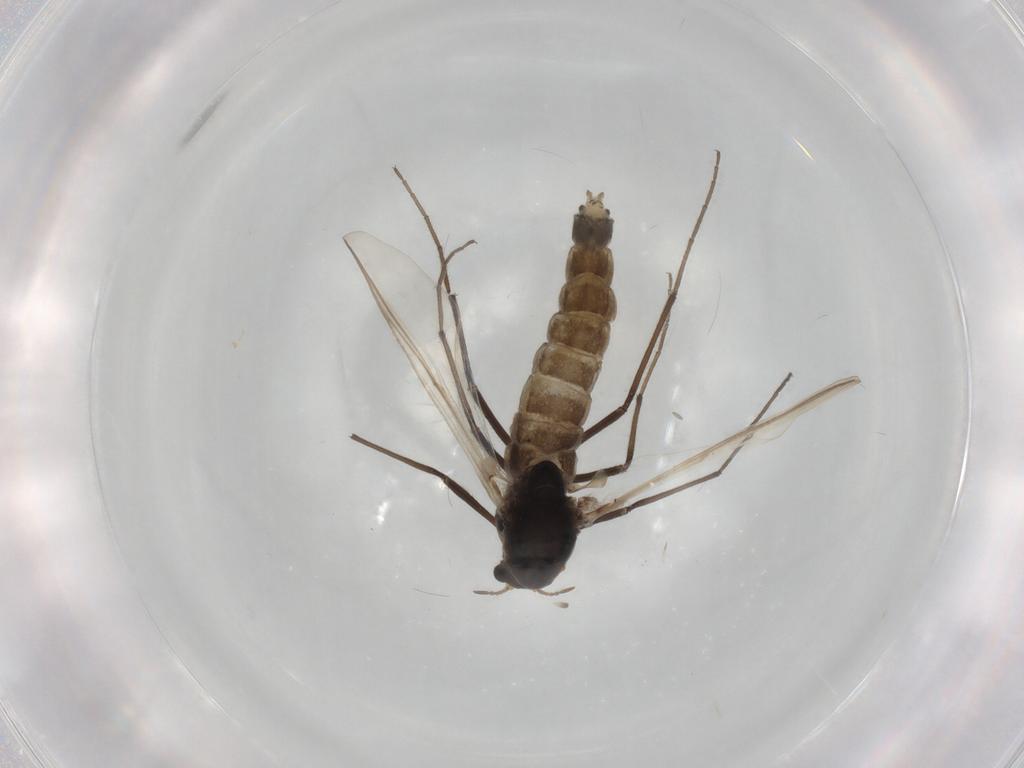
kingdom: Animalia
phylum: Arthropoda
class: Insecta
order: Diptera
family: Chironomidae
